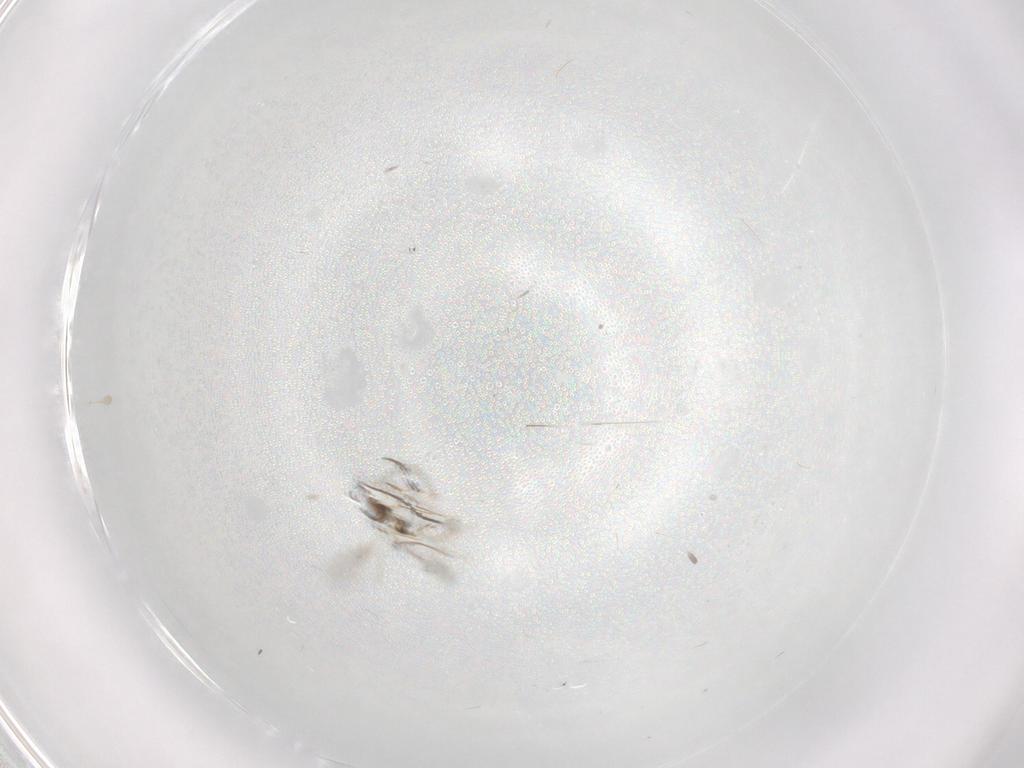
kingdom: Animalia
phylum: Arthropoda
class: Insecta
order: Hymenoptera
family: Mymaridae
